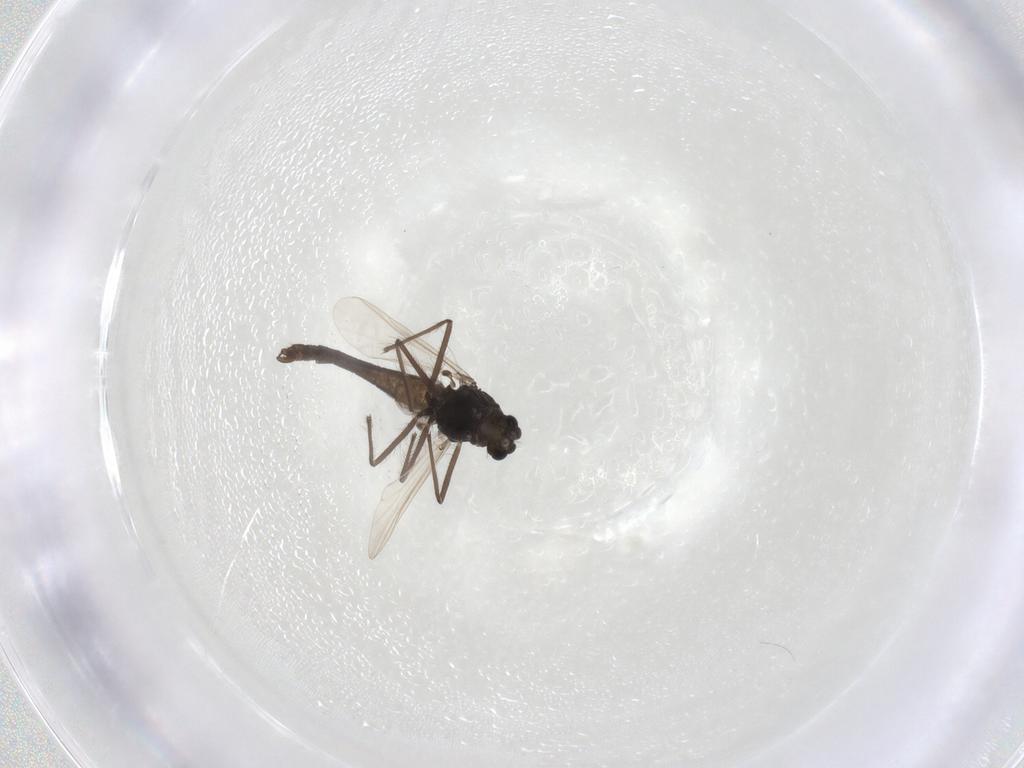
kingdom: Animalia
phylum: Arthropoda
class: Insecta
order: Diptera
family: Chironomidae
